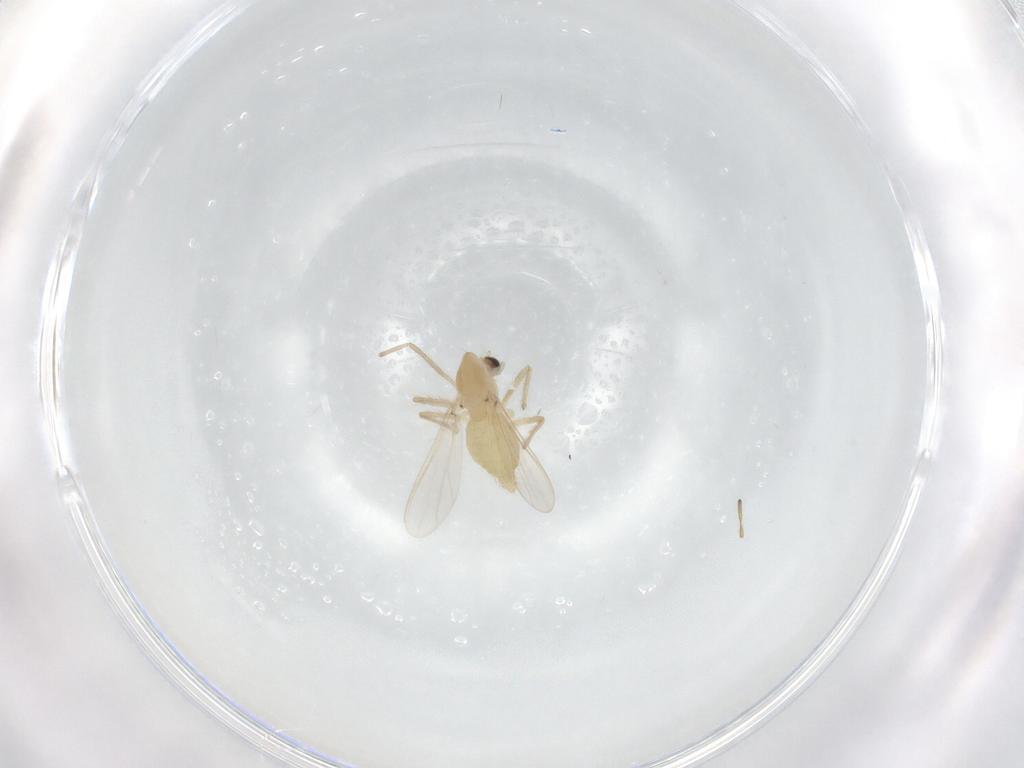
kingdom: Animalia
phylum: Arthropoda
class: Insecta
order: Diptera
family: Chironomidae
